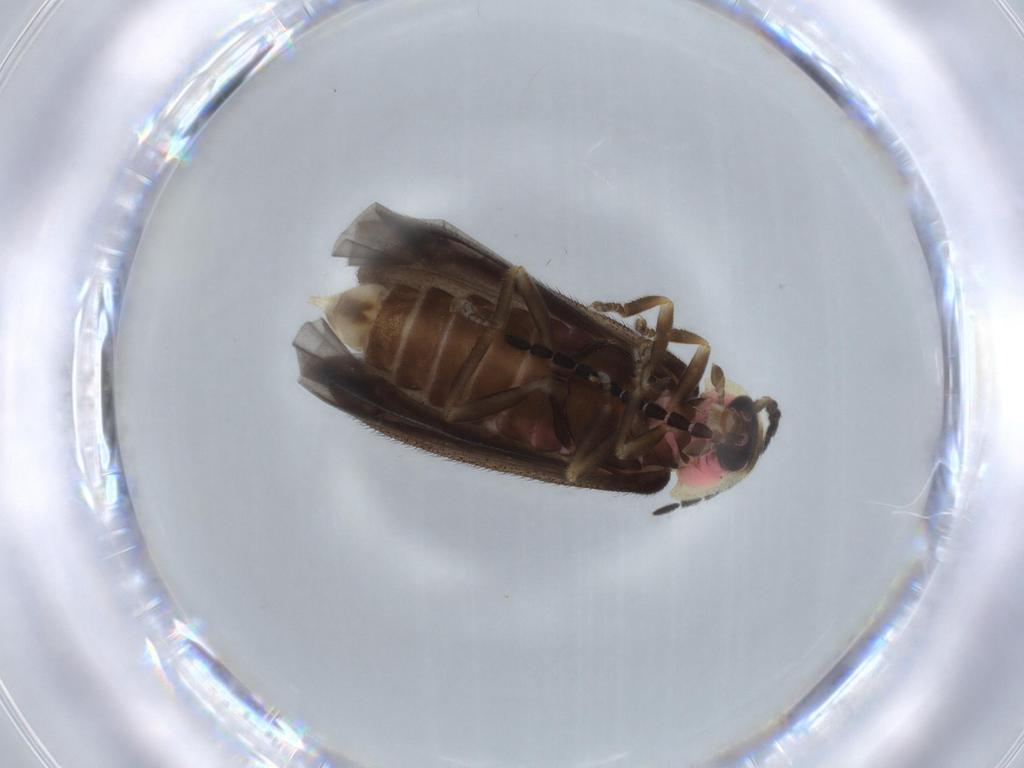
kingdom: Animalia
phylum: Arthropoda
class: Insecta
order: Coleoptera
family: Lampyridae
